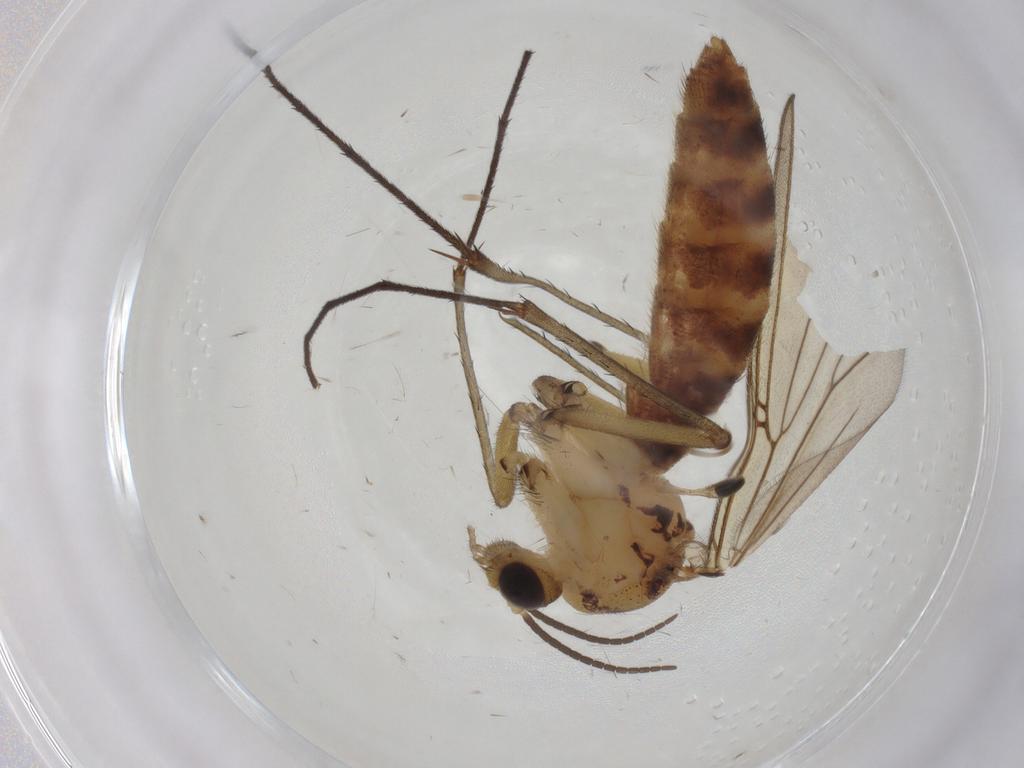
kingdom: Animalia
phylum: Arthropoda
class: Insecta
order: Diptera
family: Mycetophilidae
